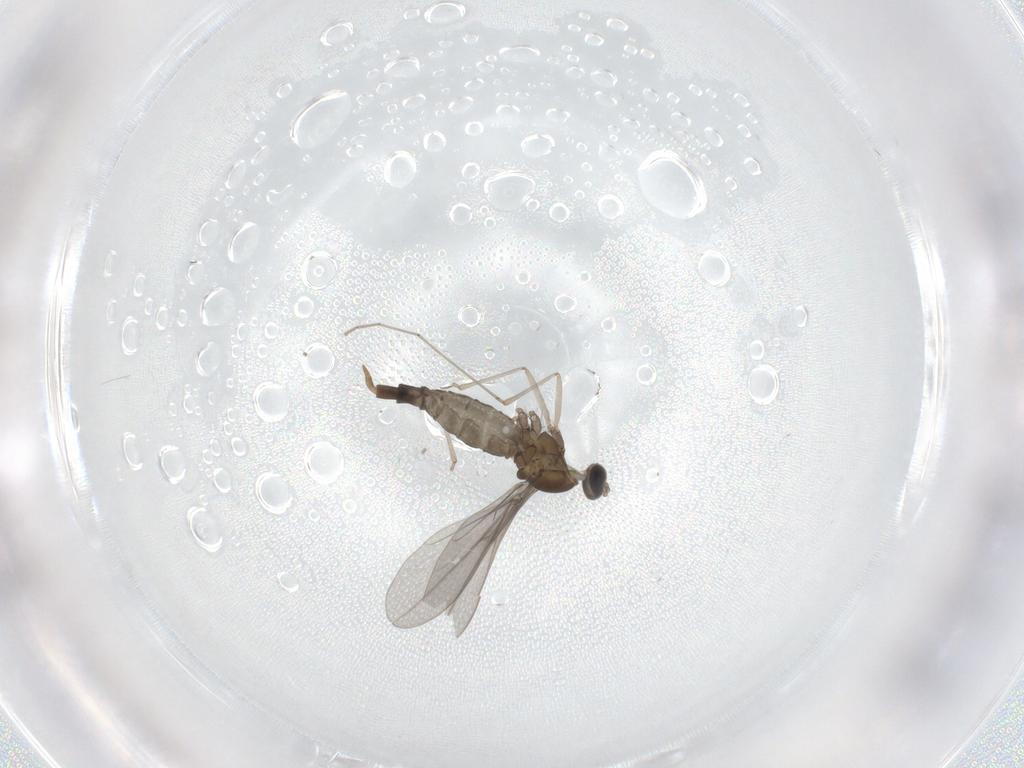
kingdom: Animalia
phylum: Arthropoda
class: Insecta
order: Diptera
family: Cecidomyiidae
